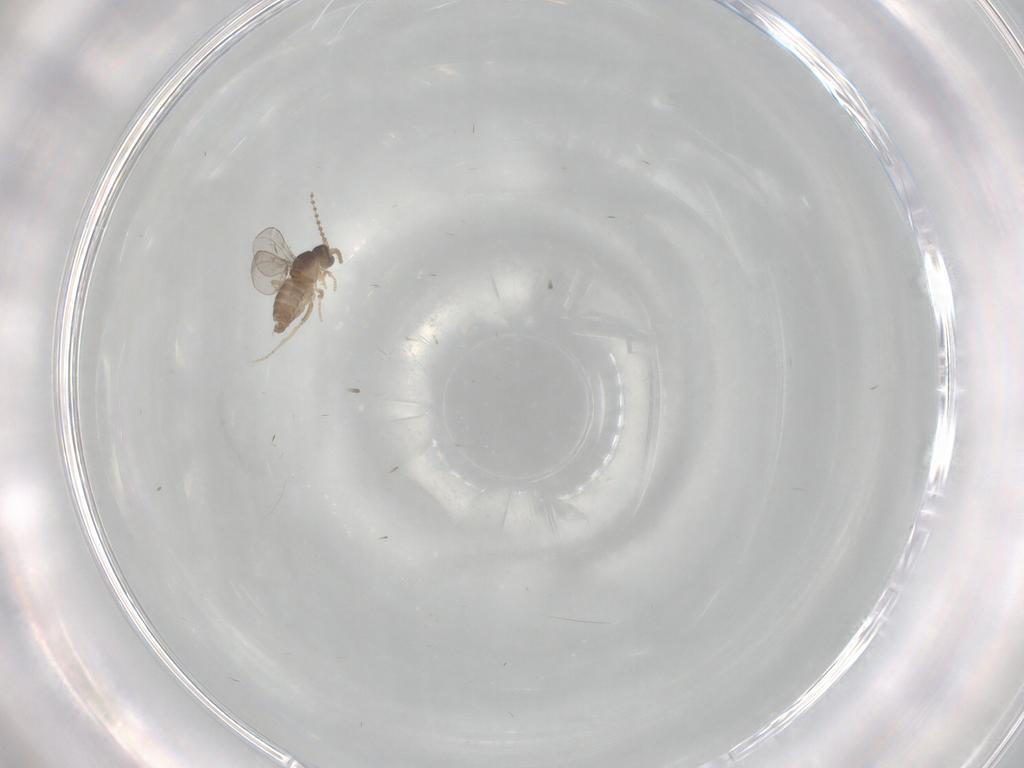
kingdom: Animalia
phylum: Arthropoda
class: Insecta
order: Diptera
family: Cecidomyiidae
